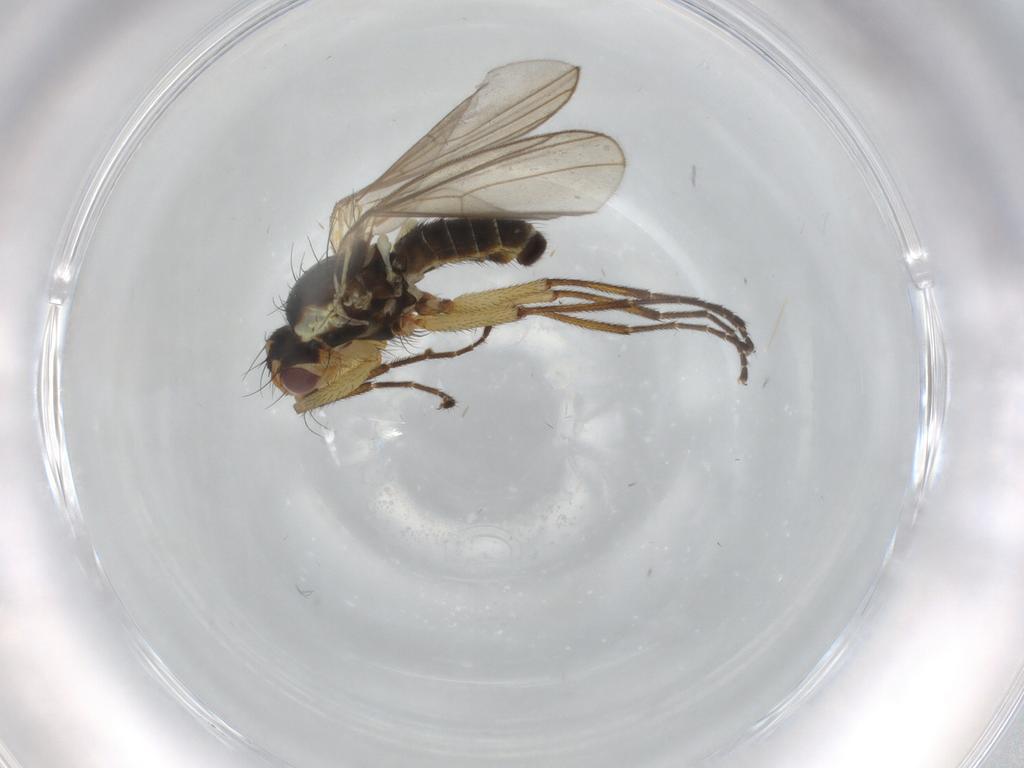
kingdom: Animalia
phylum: Arthropoda
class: Insecta
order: Diptera
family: Agromyzidae
